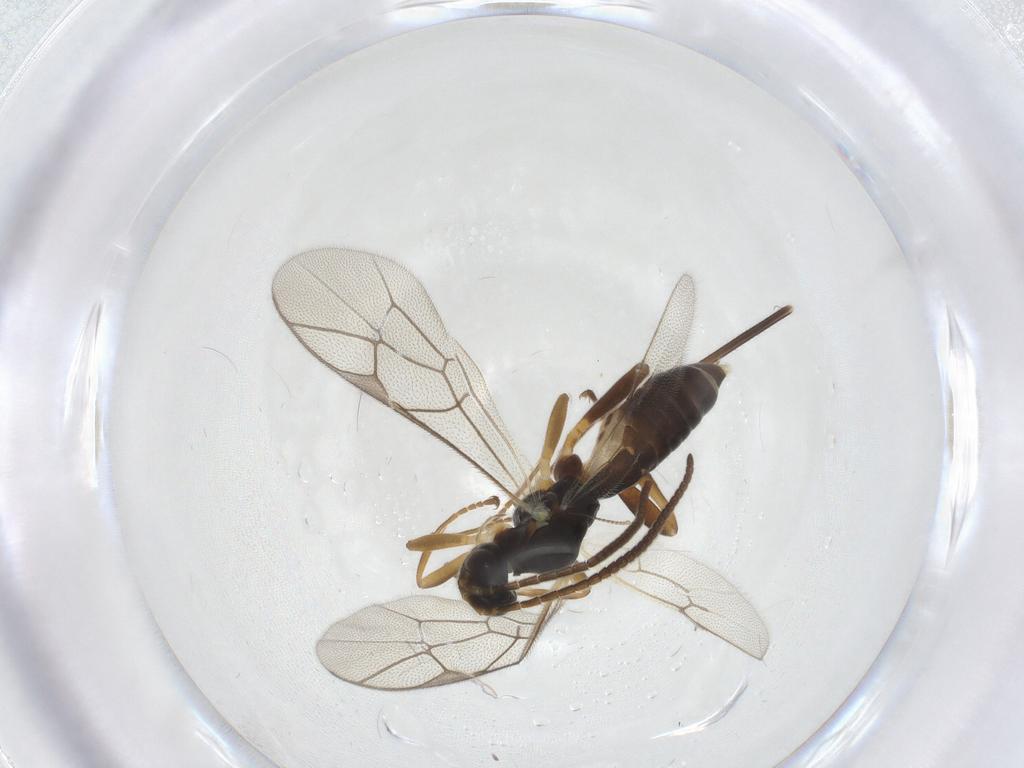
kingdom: Animalia
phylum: Arthropoda
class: Insecta
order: Hymenoptera
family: Ichneumonidae
